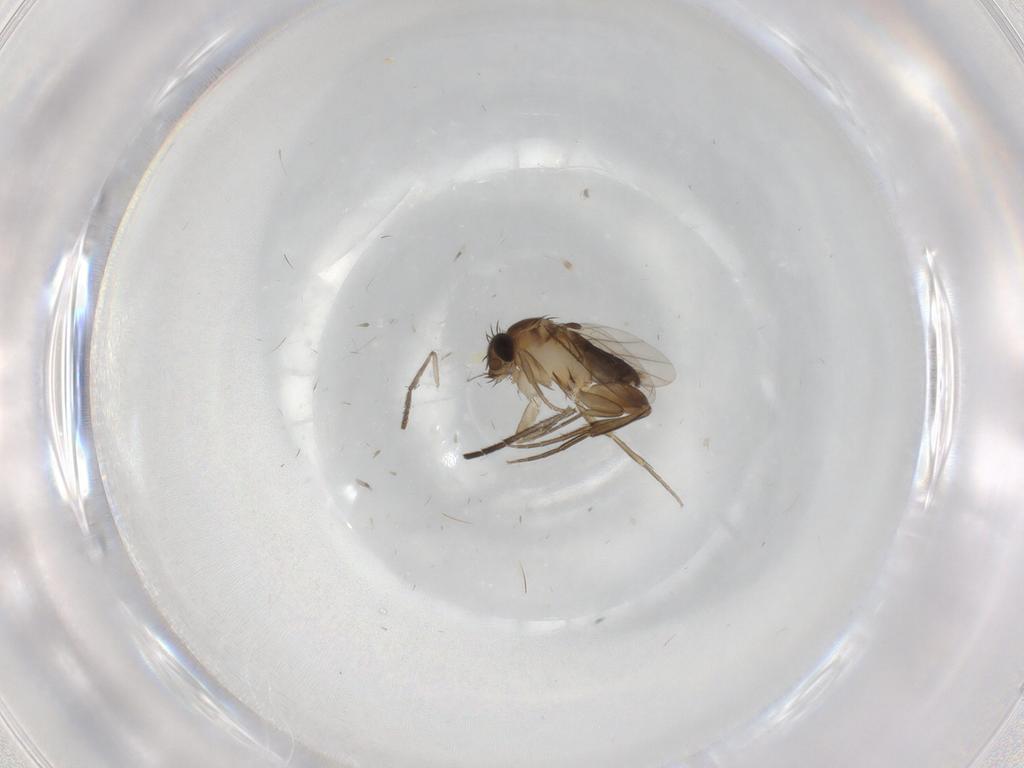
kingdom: Animalia
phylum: Arthropoda
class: Insecta
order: Diptera
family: Phoridae
